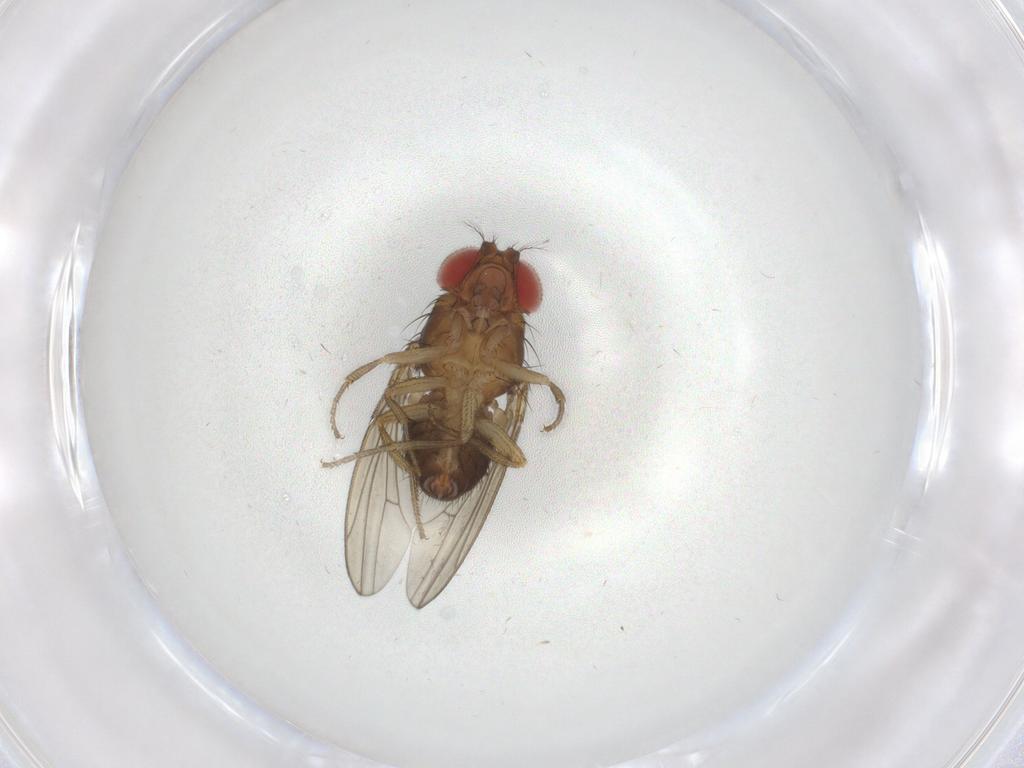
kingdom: Animalia
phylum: Arthropoda
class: Insecta
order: Diptera
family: Drosophilidae
